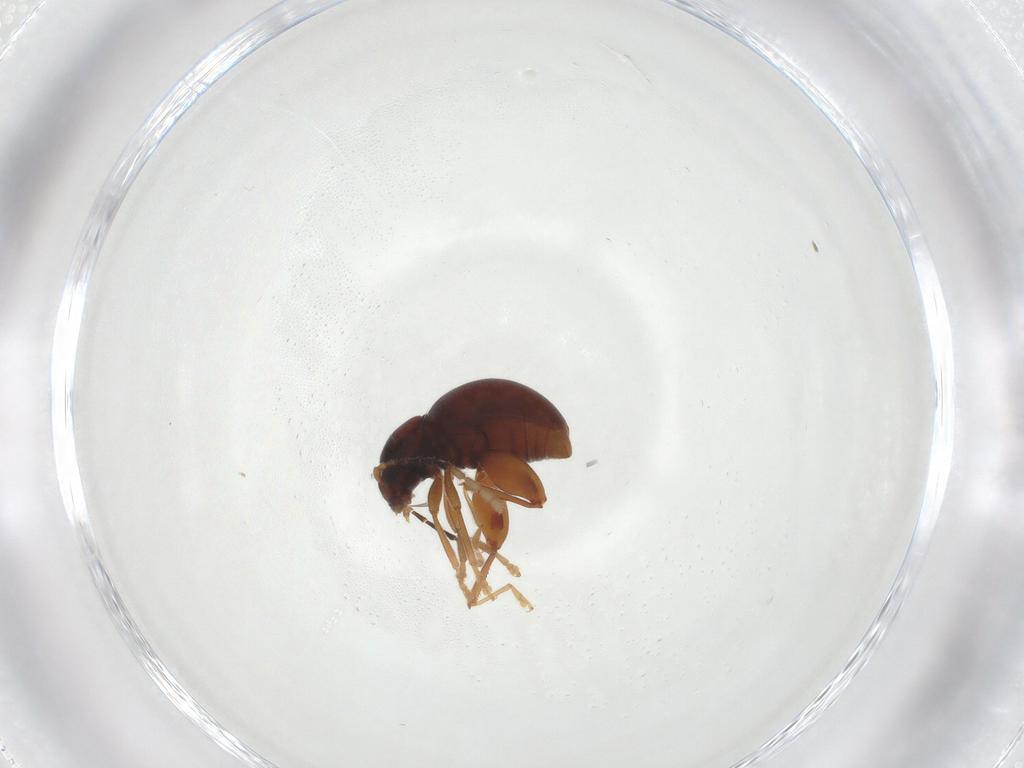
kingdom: Animalia
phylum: Arthropoda
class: Insecta
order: Coleoptera
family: Chrysomelidae
